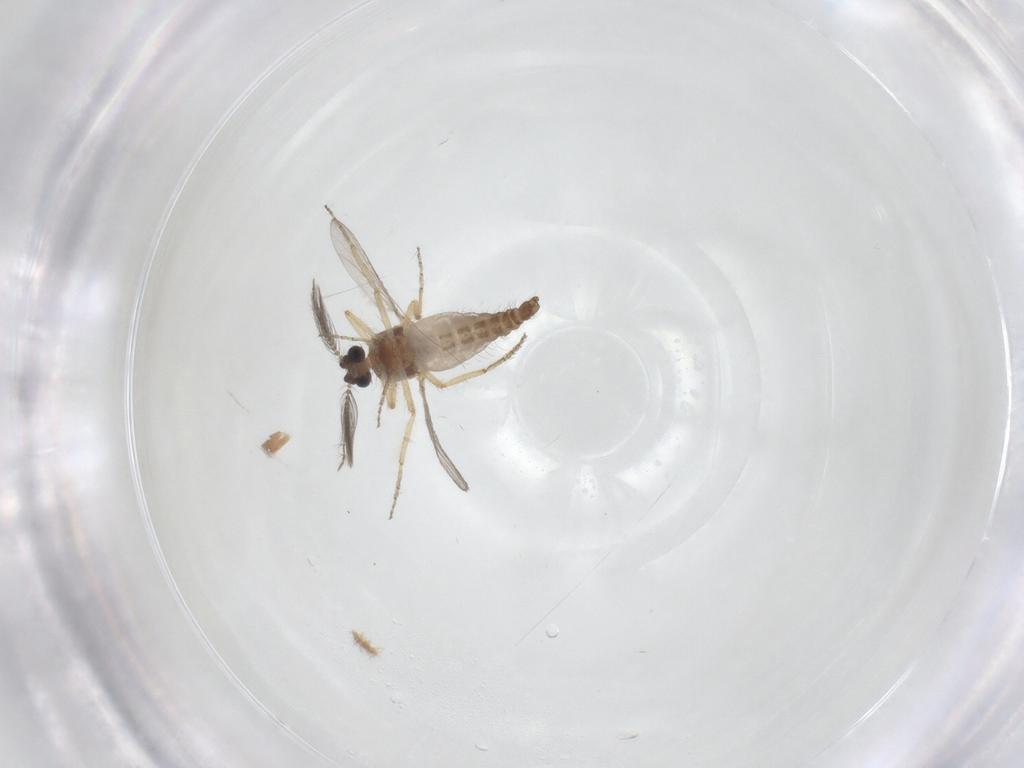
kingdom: Animalia
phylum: Arthropoda
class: Insecta
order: Diptera
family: Ceratopogonidae
